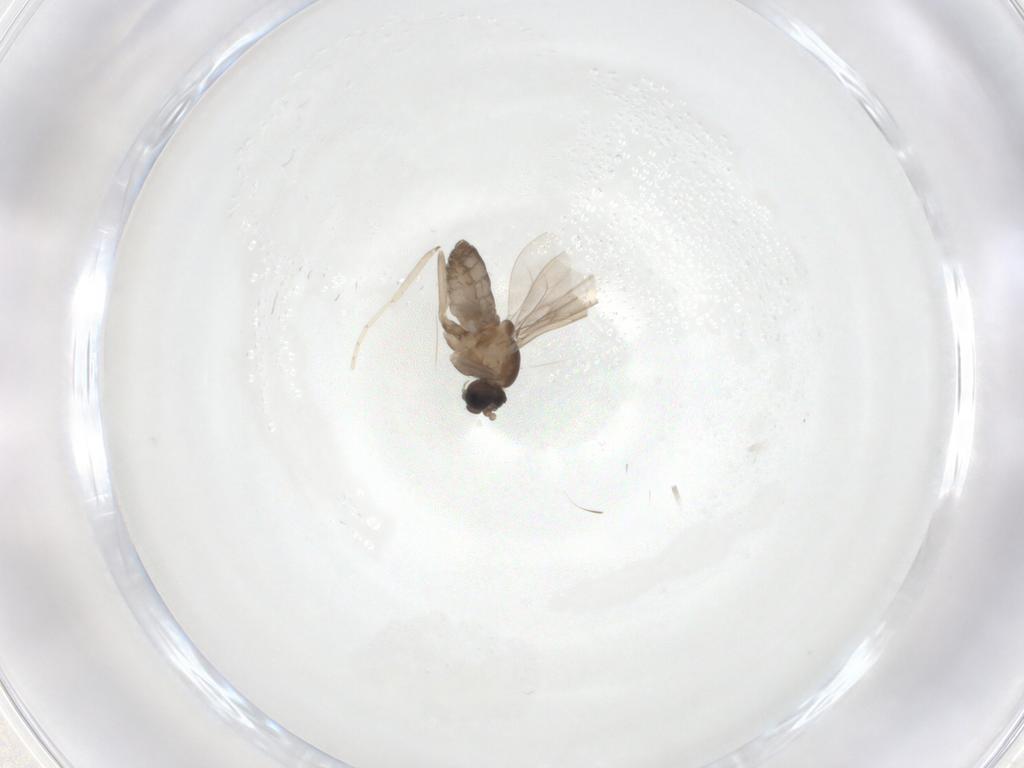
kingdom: Animalia
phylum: Arthropoda
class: Insecta
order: Diptera
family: Cecidomyiidae
